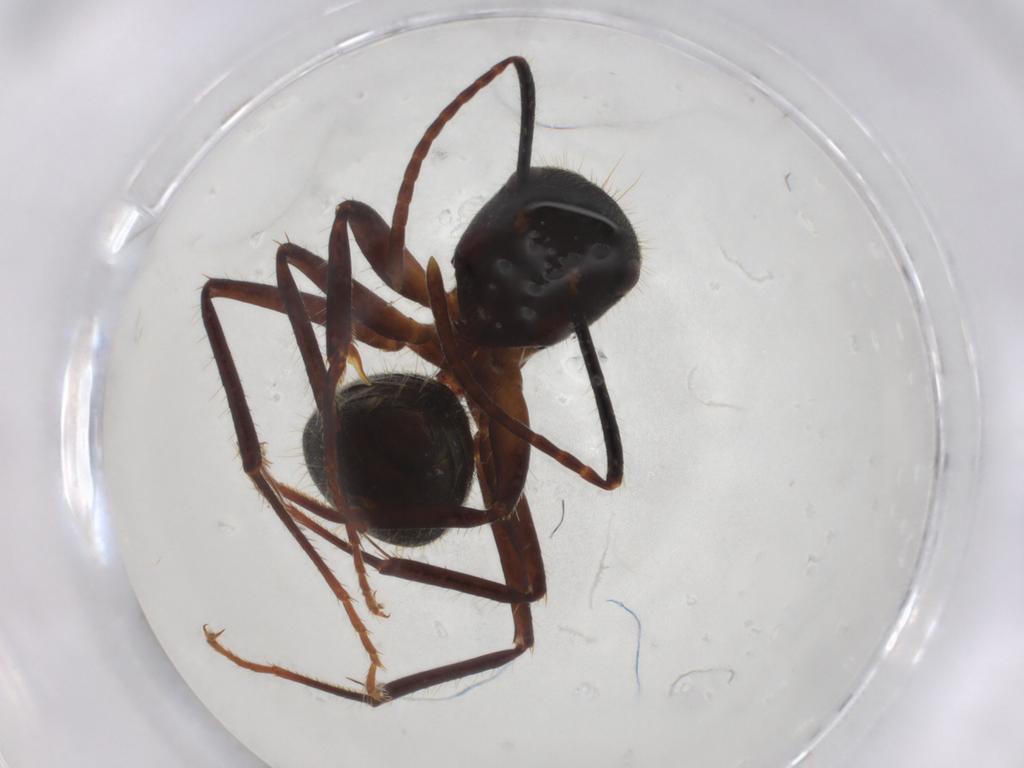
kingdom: Animalia
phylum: Arthropoda
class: Insecta
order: Hymenoptera
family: Formicidae
